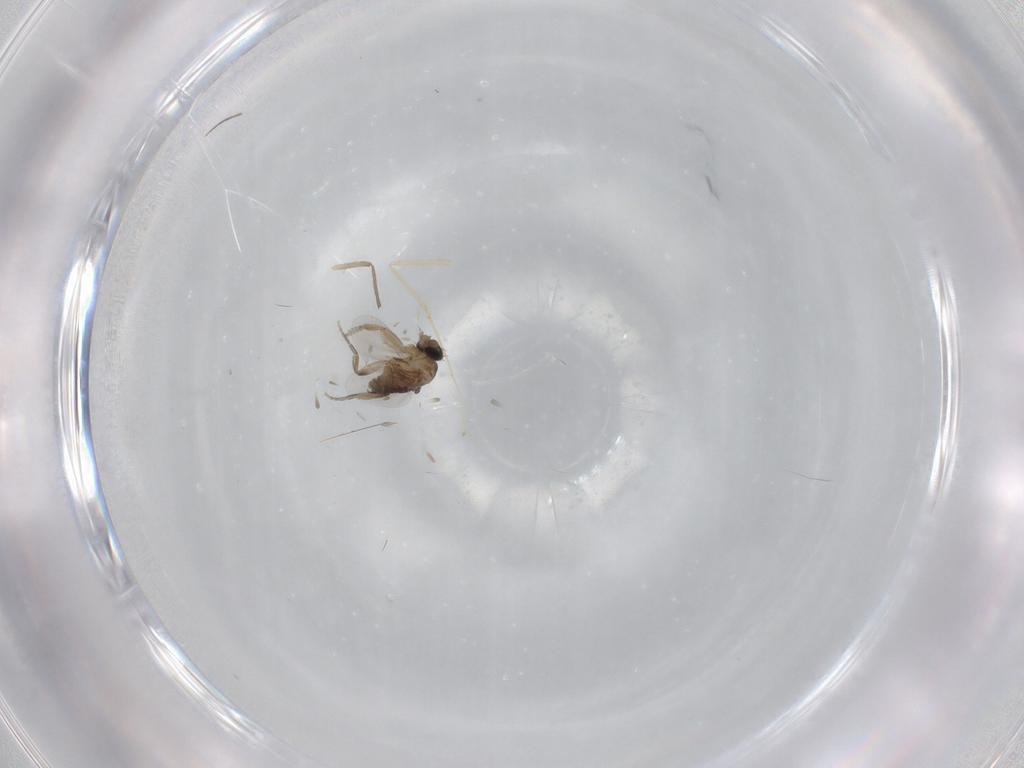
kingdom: Animalia
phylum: Arthropoda
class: Insecta
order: Diptera
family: Phoridae
